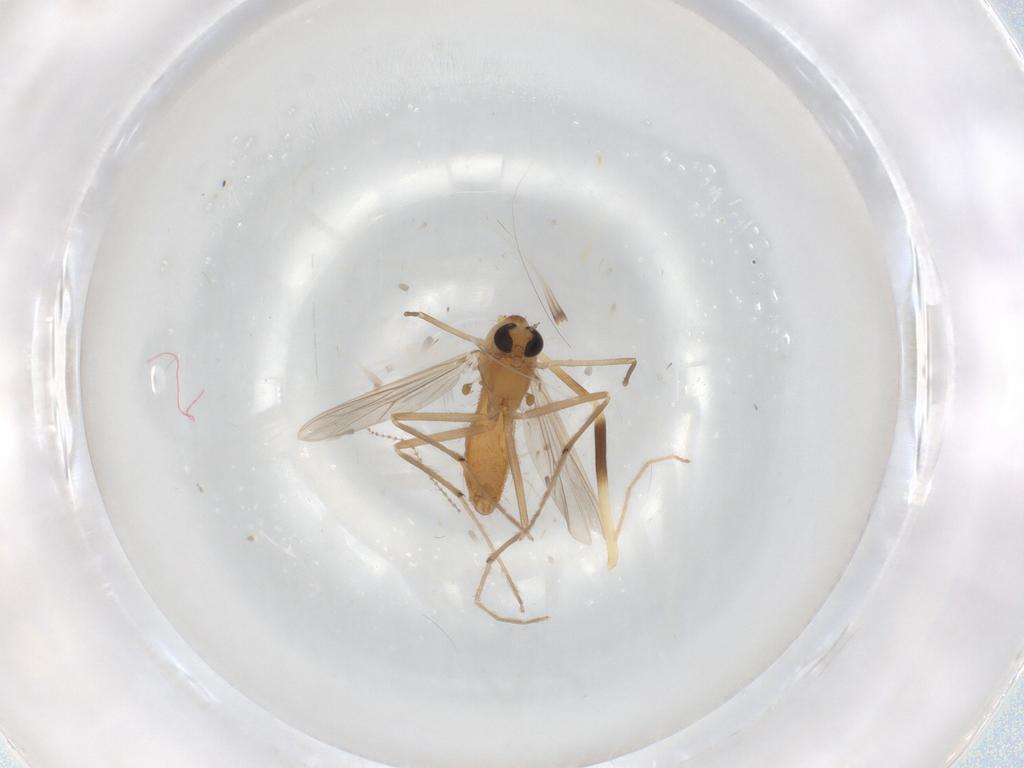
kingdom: Animalia
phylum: Arthropoda
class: Insecta
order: Diptera
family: Chironomidae
